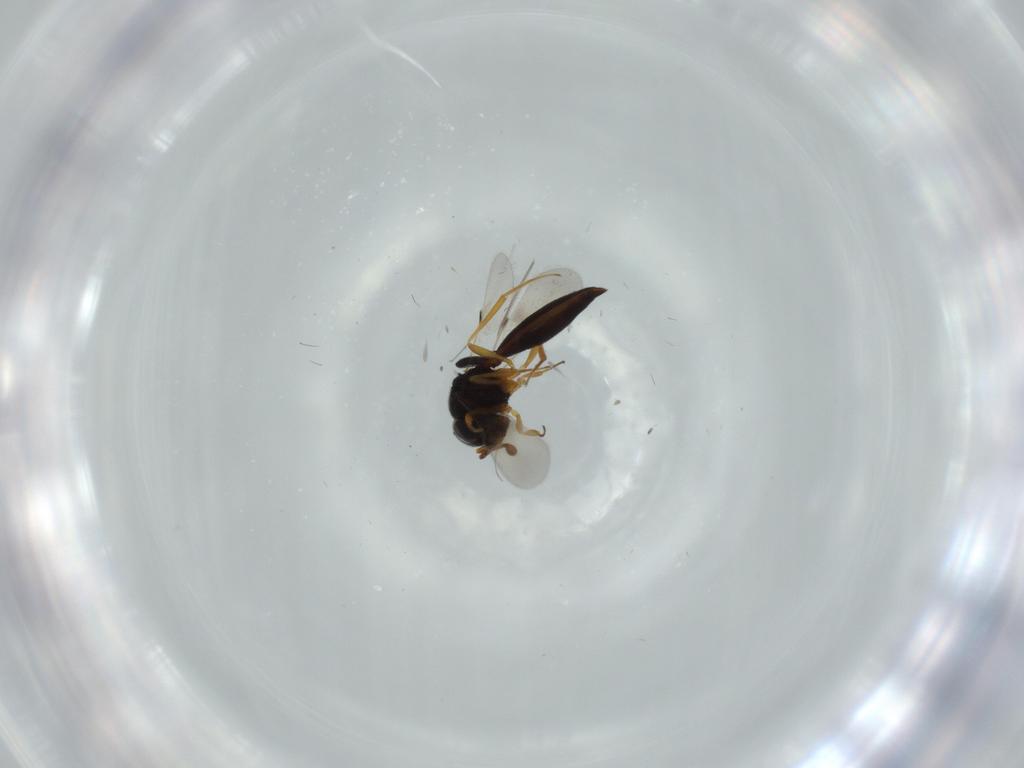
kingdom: Animalia
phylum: Arthropoda
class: Insecta
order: Hymenoptera
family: Scelionidae
